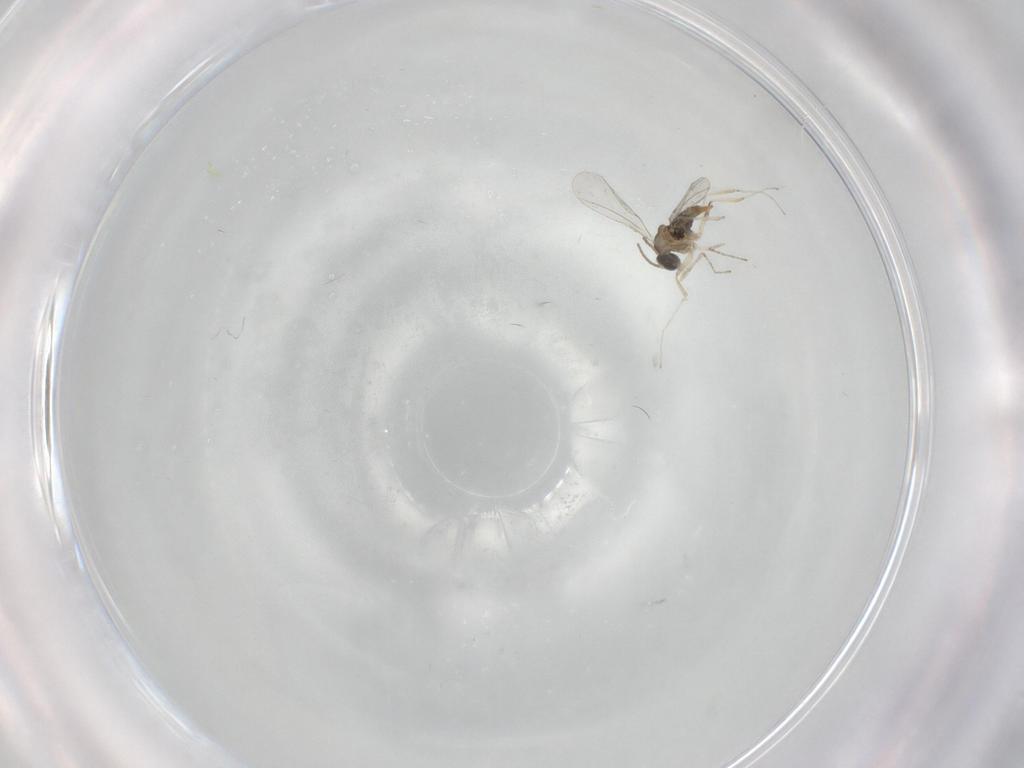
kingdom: Animalia
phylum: Arthropoda
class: Insecta
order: Diptera
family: Cecidomyiidae
